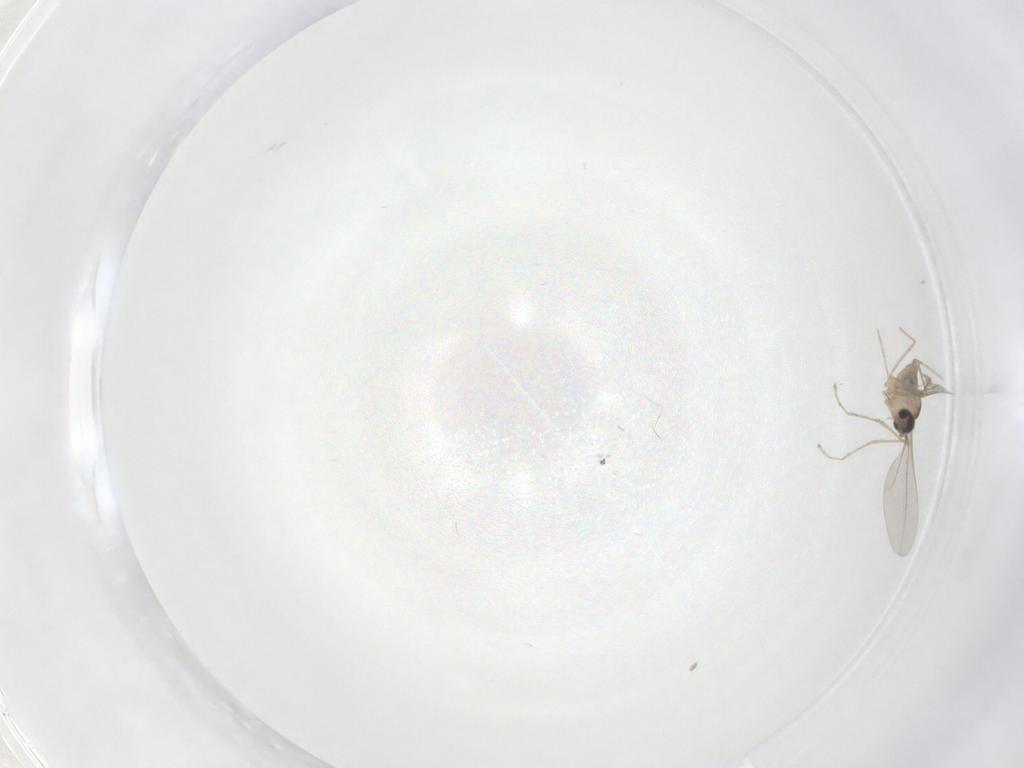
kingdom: Animalia
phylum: Arthropoda
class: Insecta
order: Diptera
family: Cecidomyiidae
